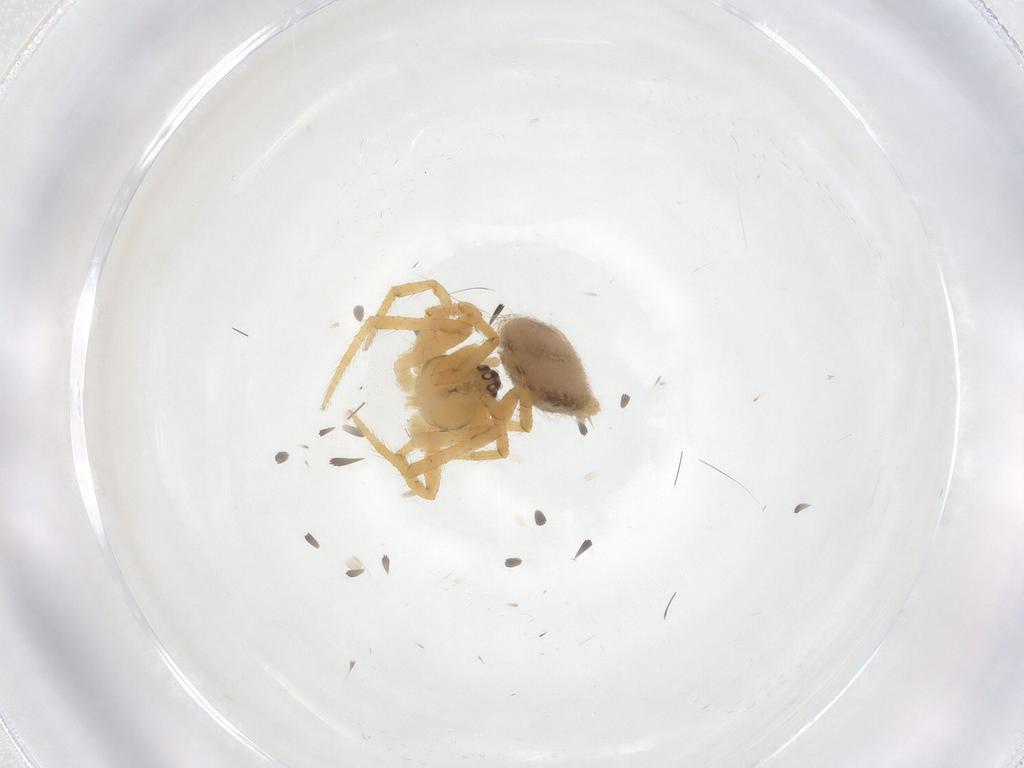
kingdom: Animalia
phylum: Arthropoda
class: Arachnida
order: Araneae
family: Theridiidae
